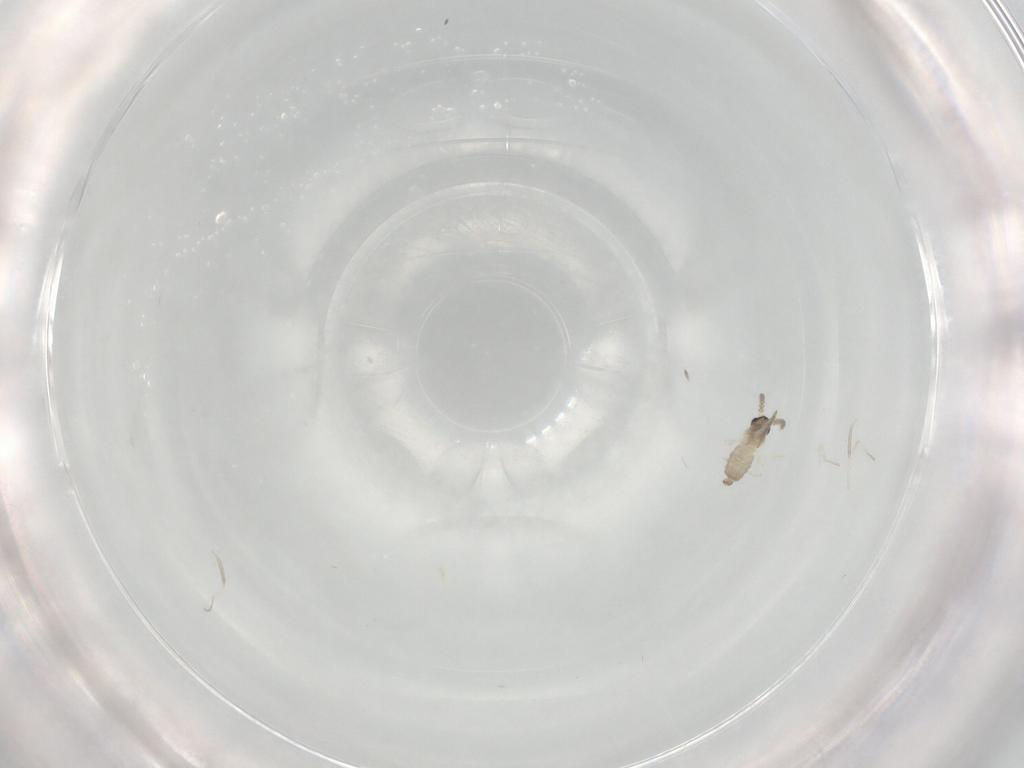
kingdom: Animalia
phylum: Arthropoda
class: Insecta
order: Diptera
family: Cecidomyiidae
